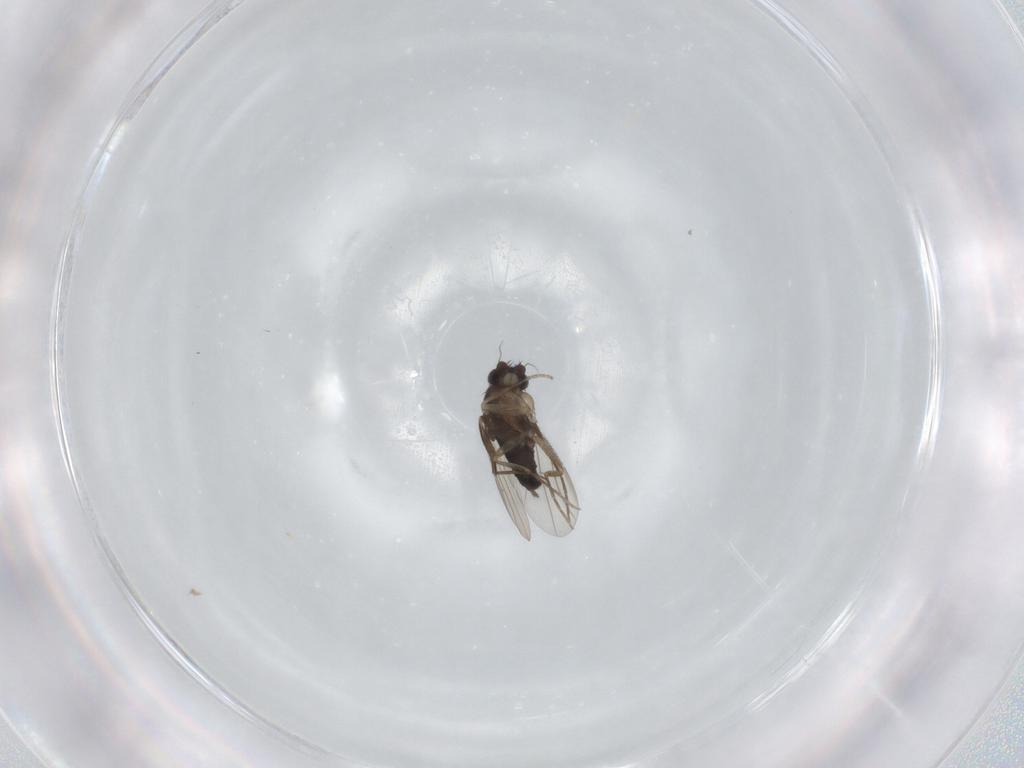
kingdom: Animalia
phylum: Arthropoda
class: Insecta
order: Diptera
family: Phoridae
